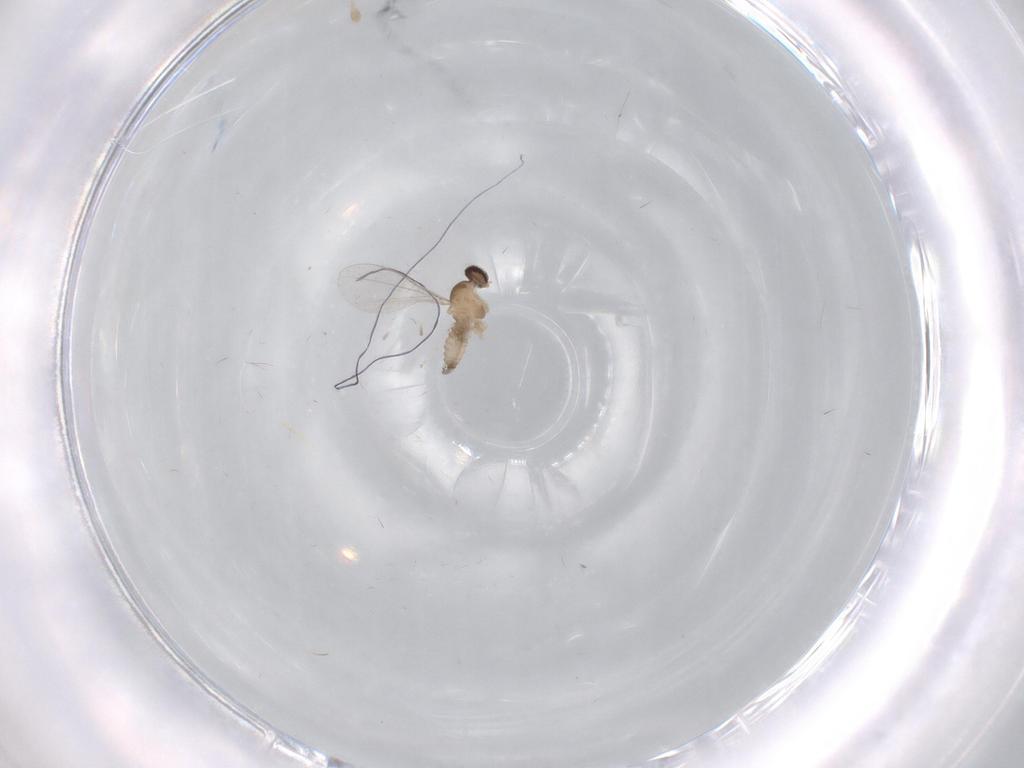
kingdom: Animalia
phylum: Arthropoda
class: Insecta
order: Diptera
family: Cecidomyiidae
